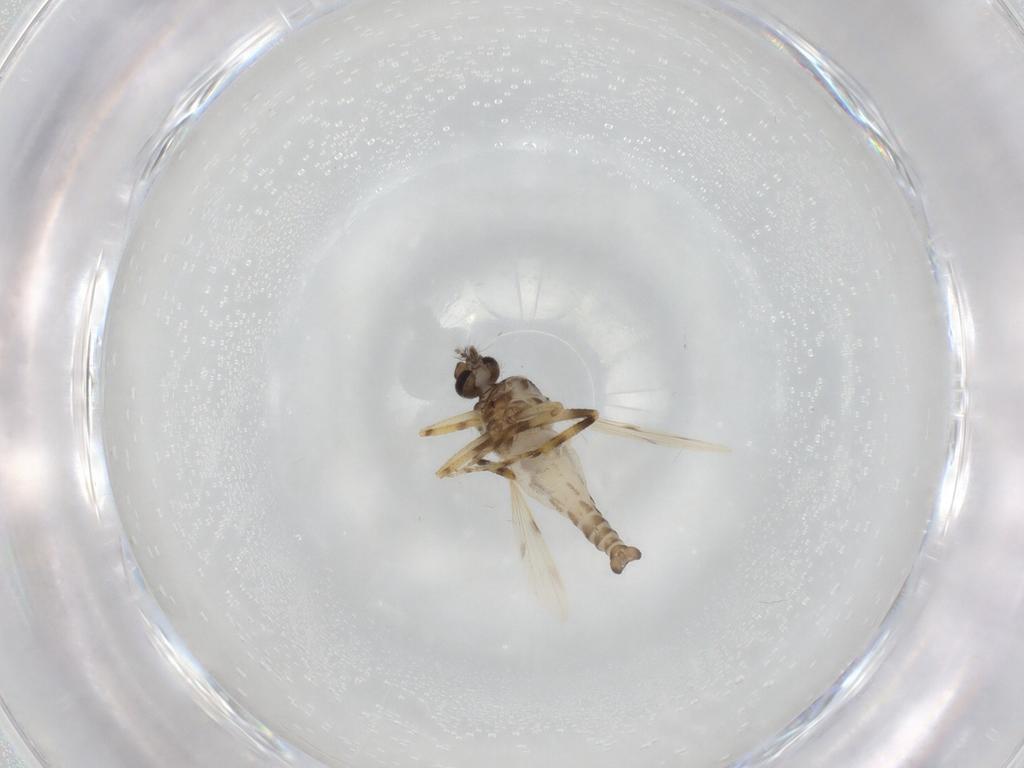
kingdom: Animalia
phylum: Arthropoda
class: Insecta
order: Diptera
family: Ceratopogonidae
